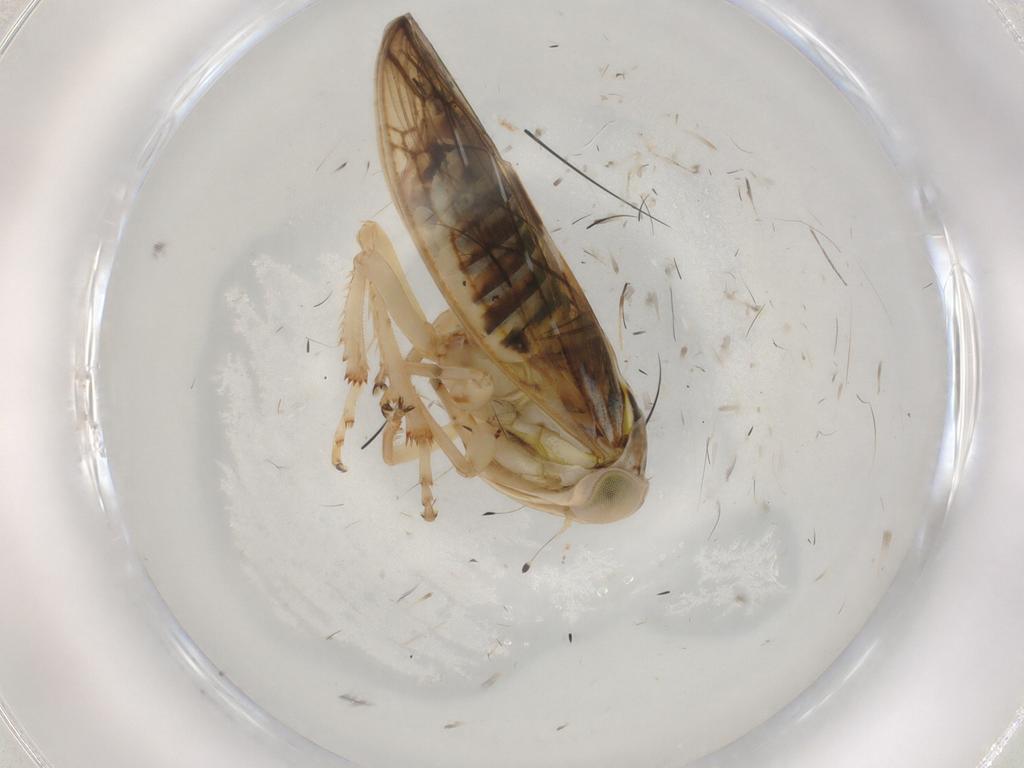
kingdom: Animalia
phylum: Arthropoda
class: Insecta
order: Hemiptera
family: Cicadellidae
